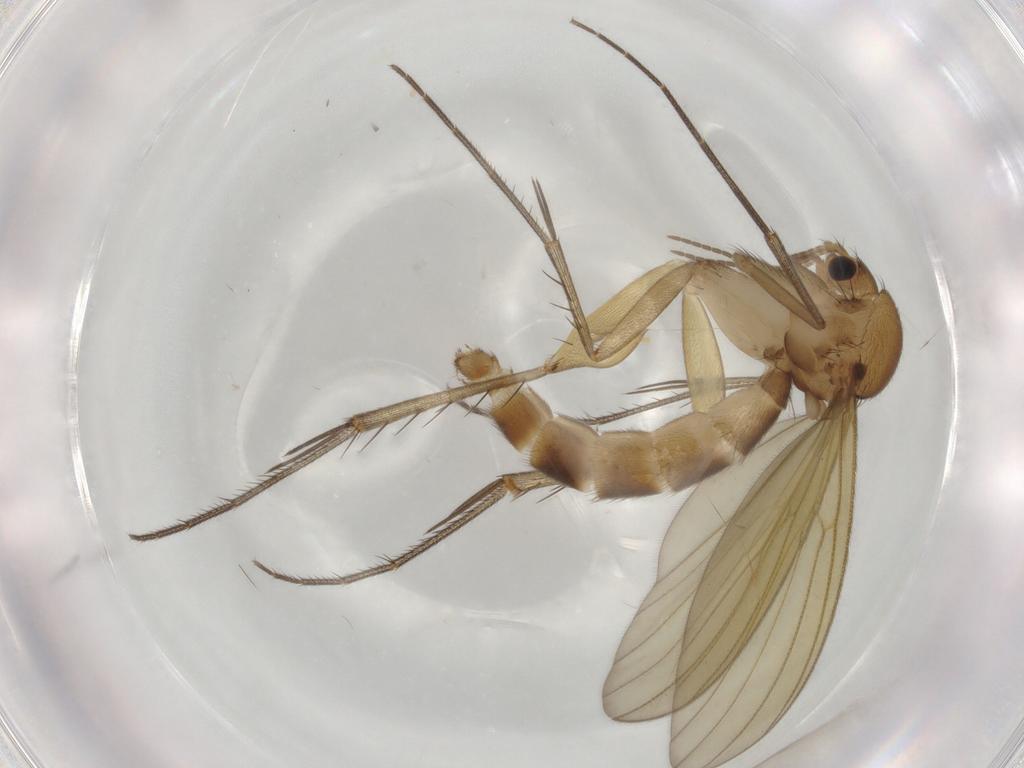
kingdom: Animalia
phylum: Arthropoda
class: Insecta
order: Diptera
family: Mycetophilidae
